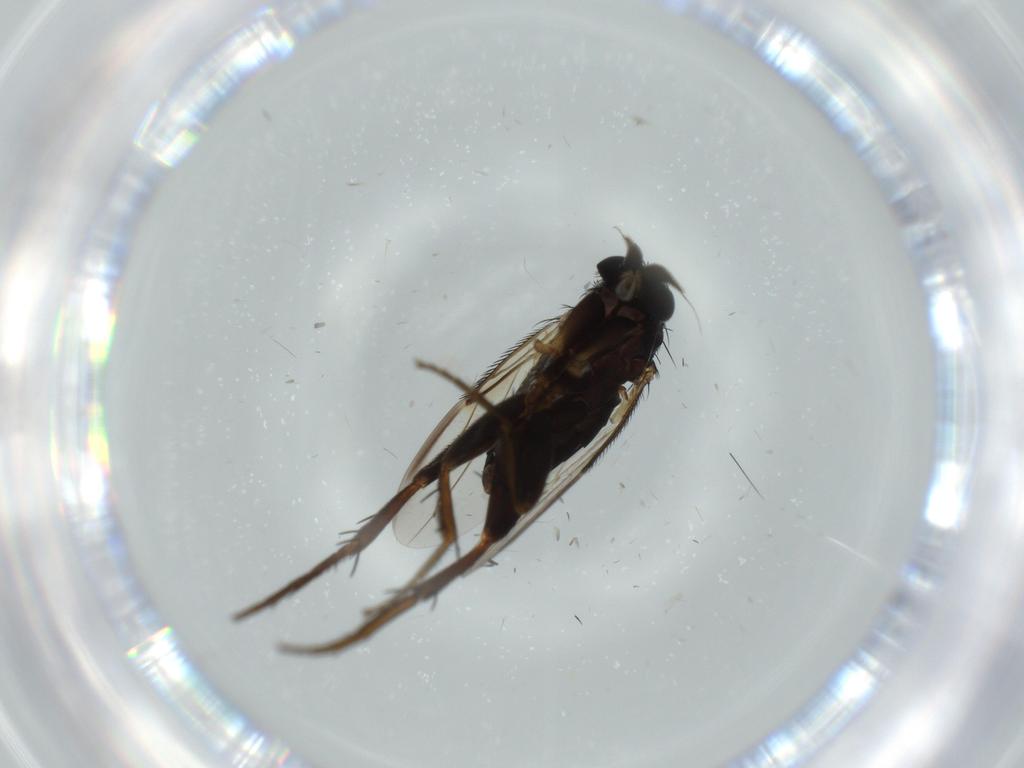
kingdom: Animalia
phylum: Arthropoda
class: Insecta
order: Diptera
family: Phoridae
